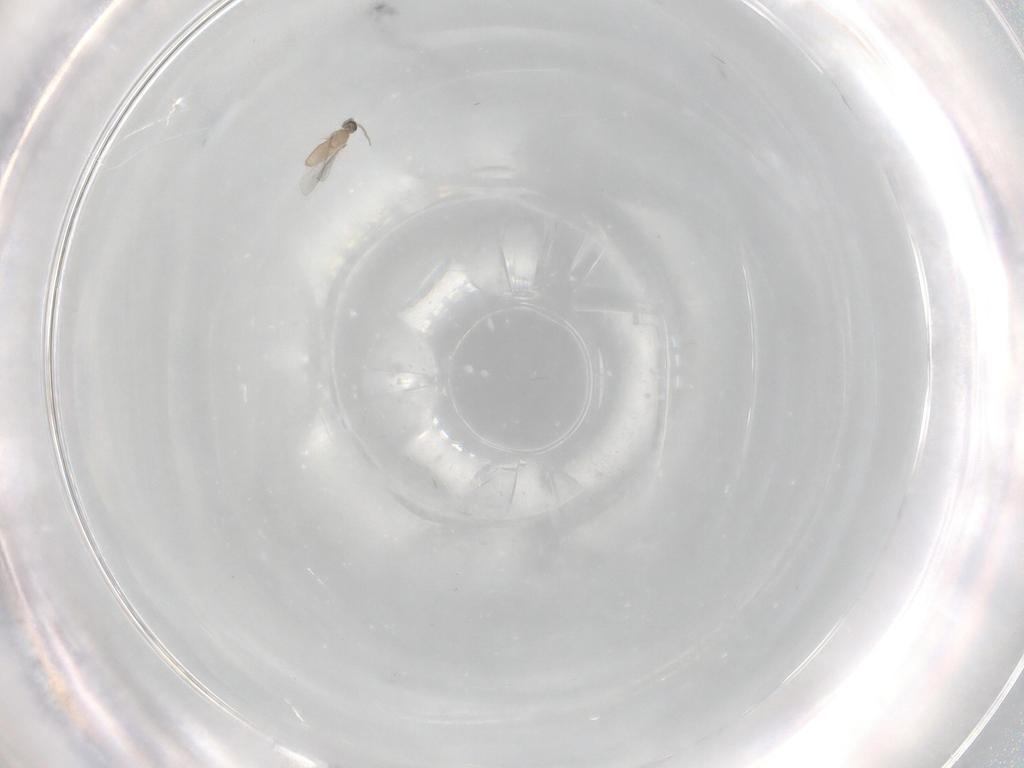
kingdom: Animalia
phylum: Arthropoda
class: Insecta
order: Diptera
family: Cecidomyiidae
